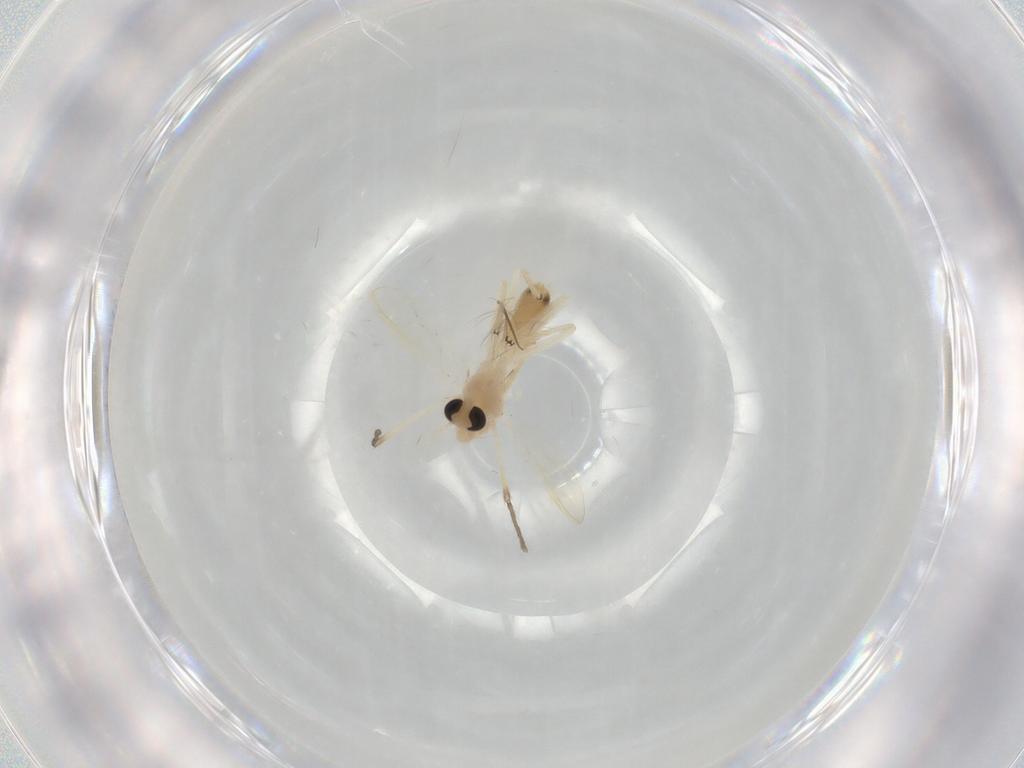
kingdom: Animalia
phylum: Arthropoda
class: Insecta
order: Diptera
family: Chironomidae
